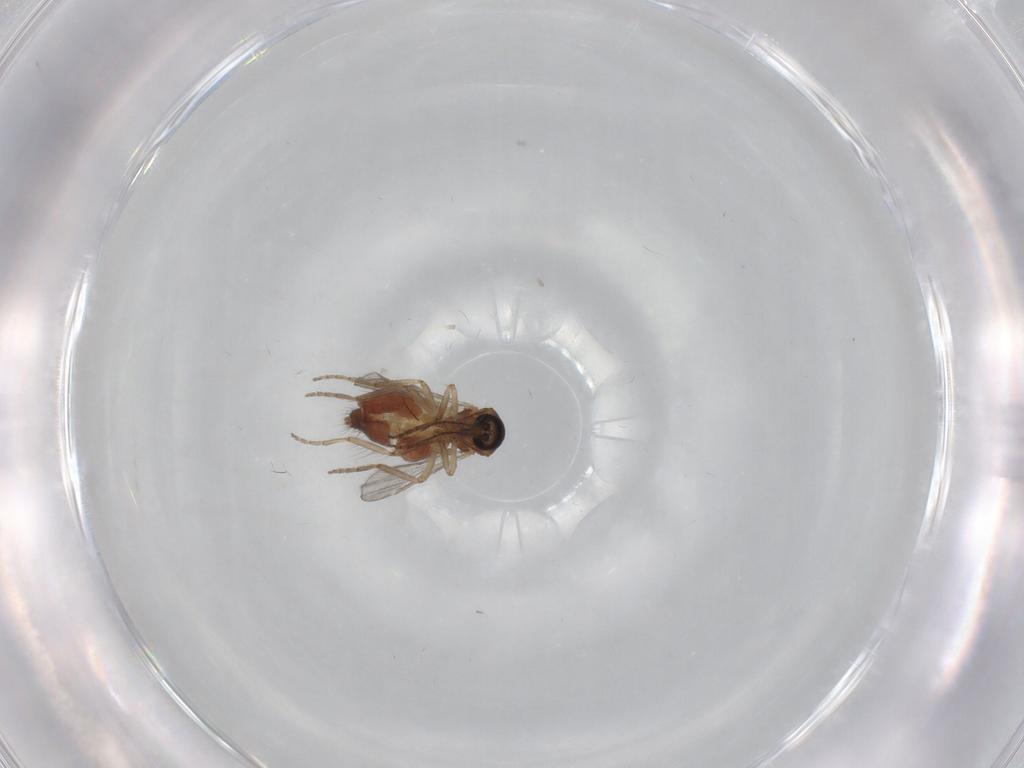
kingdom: Animalia
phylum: Arthropoda
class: Insecta
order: Diptera
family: Ceratopogonidae
